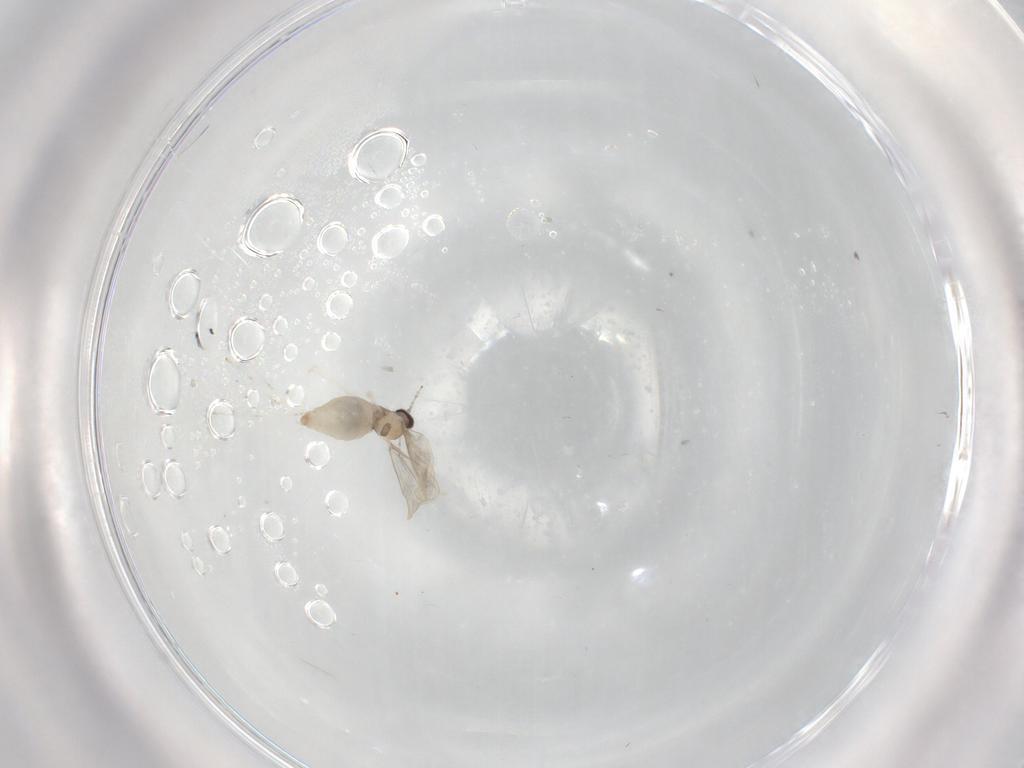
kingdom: Animalia
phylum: Arthropoda
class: Insecta
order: Diptera
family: Cecidomyiidae
